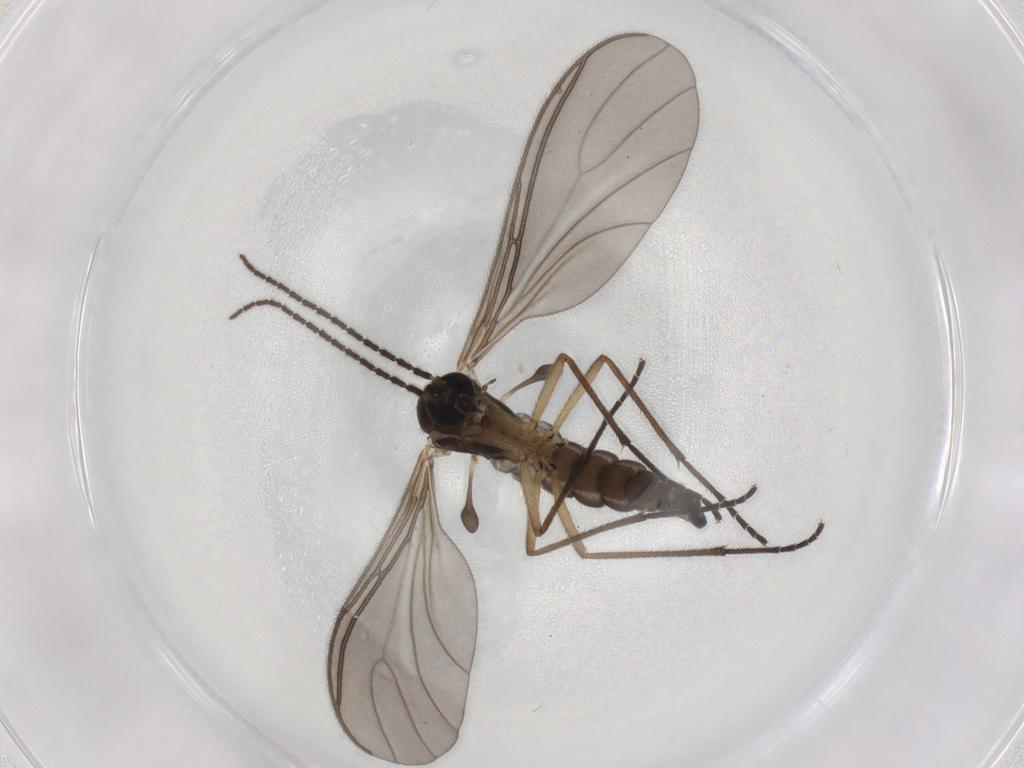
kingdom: Animalia
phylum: Arthropoda
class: Insecta
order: Diptera
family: Sciaridae
